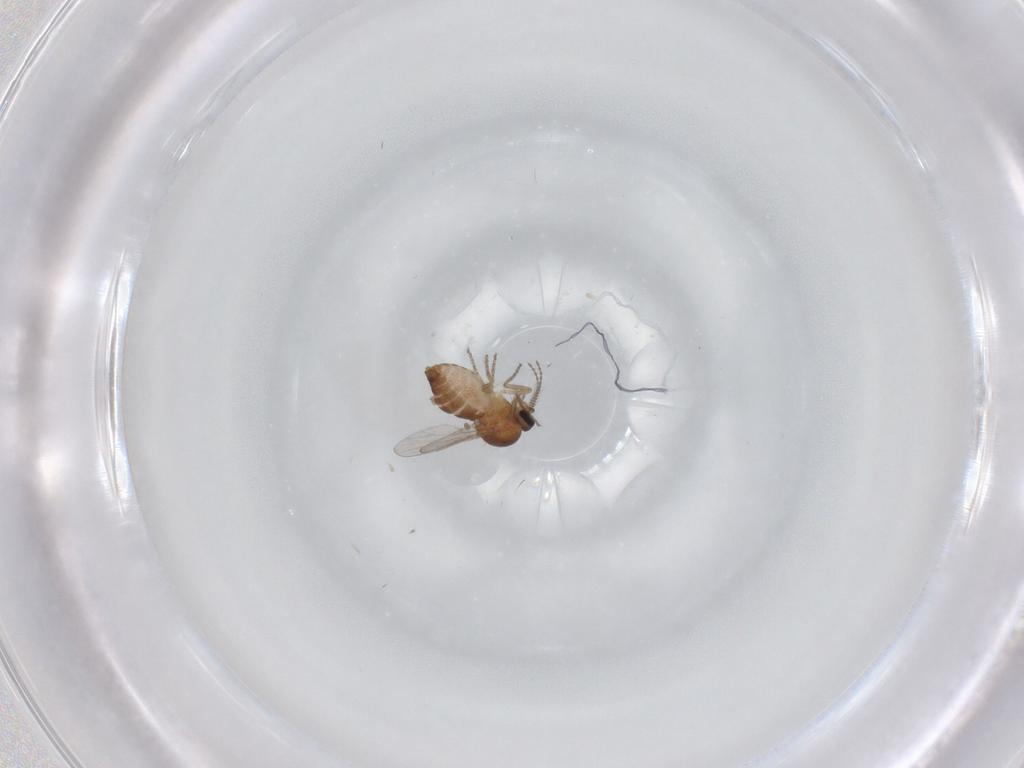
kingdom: Animalia
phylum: Arthropoda
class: Insecta
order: Diptera
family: Ceratopogonidae
